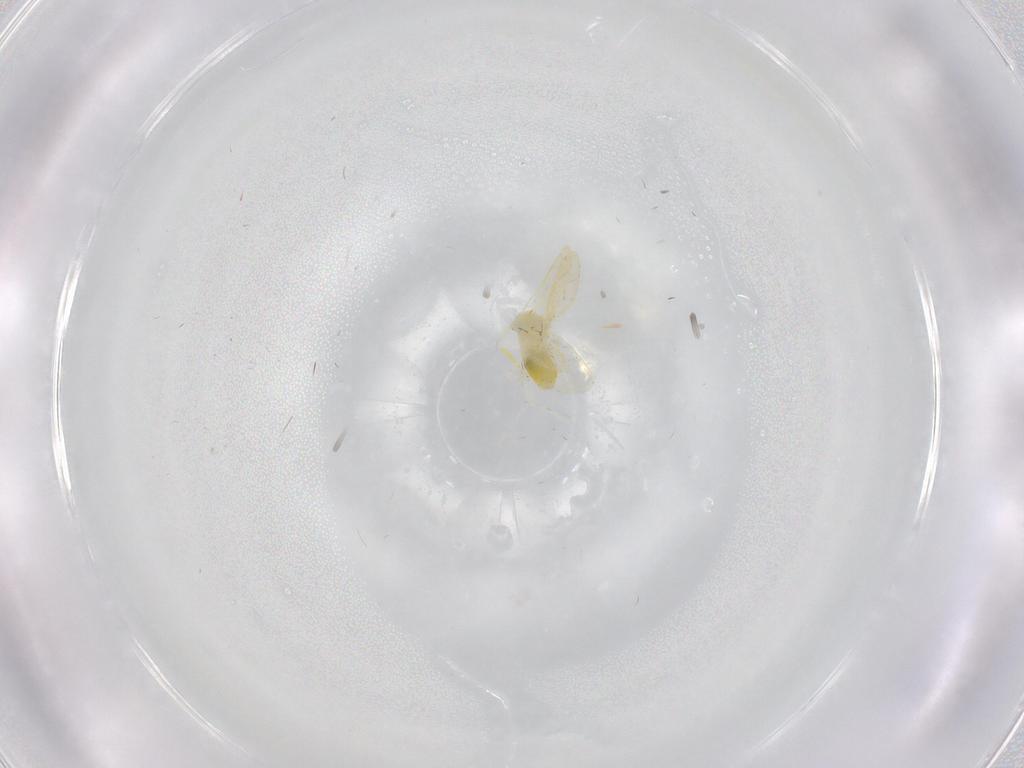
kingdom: Animalia
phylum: Arthropoda
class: Insecta
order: Hemiptera
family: Aleyrodidae
